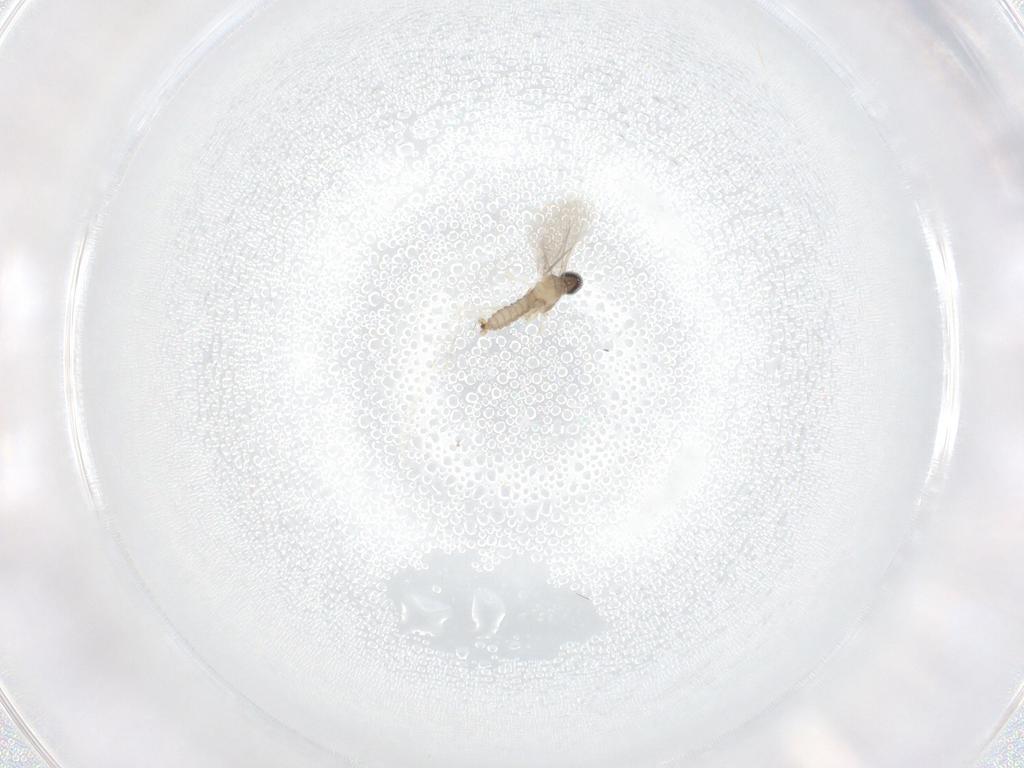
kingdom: Animalia
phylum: Arthropoda
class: Insecta
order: Diptera
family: Cecidomyiidae
